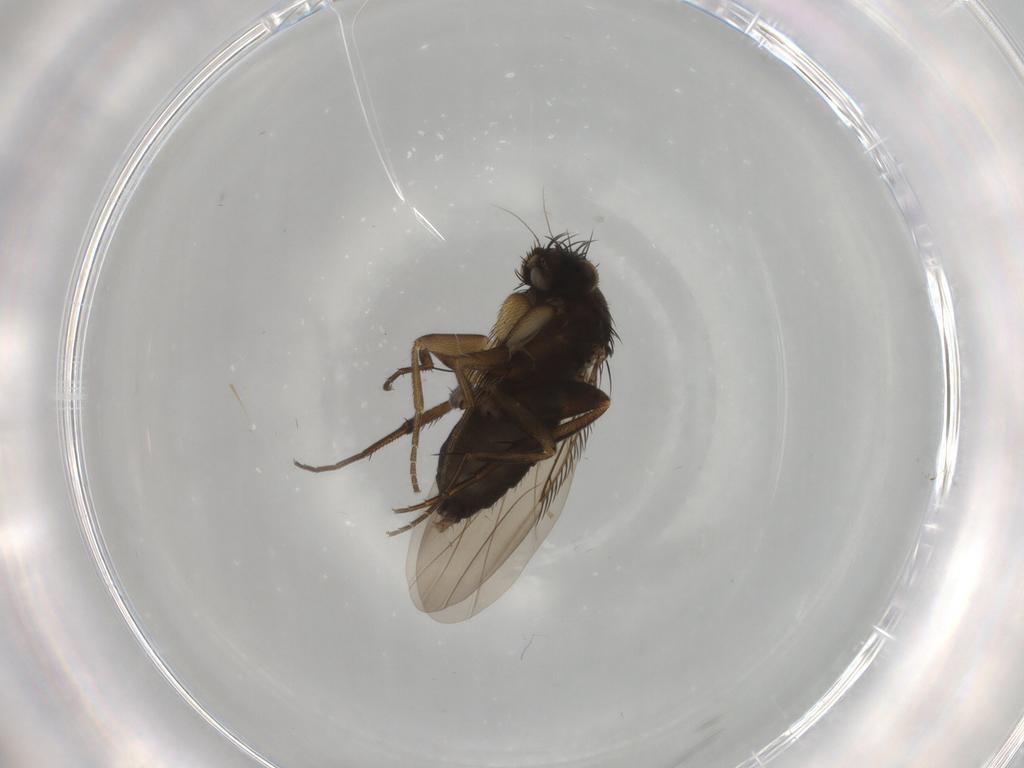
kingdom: Animalia
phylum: Arthropoda
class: Insecta
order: Diptera
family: Phoridae
